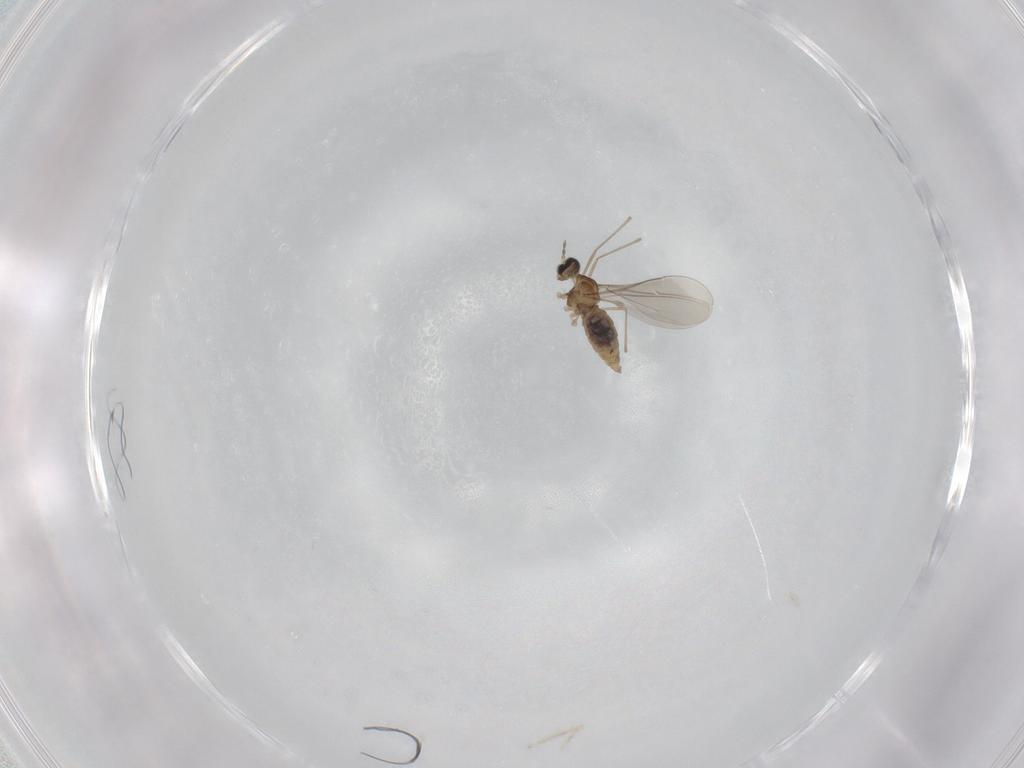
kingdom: Animalia
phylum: Arthropoda
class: Insecta
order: Diptera
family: Cecidomyiidae
